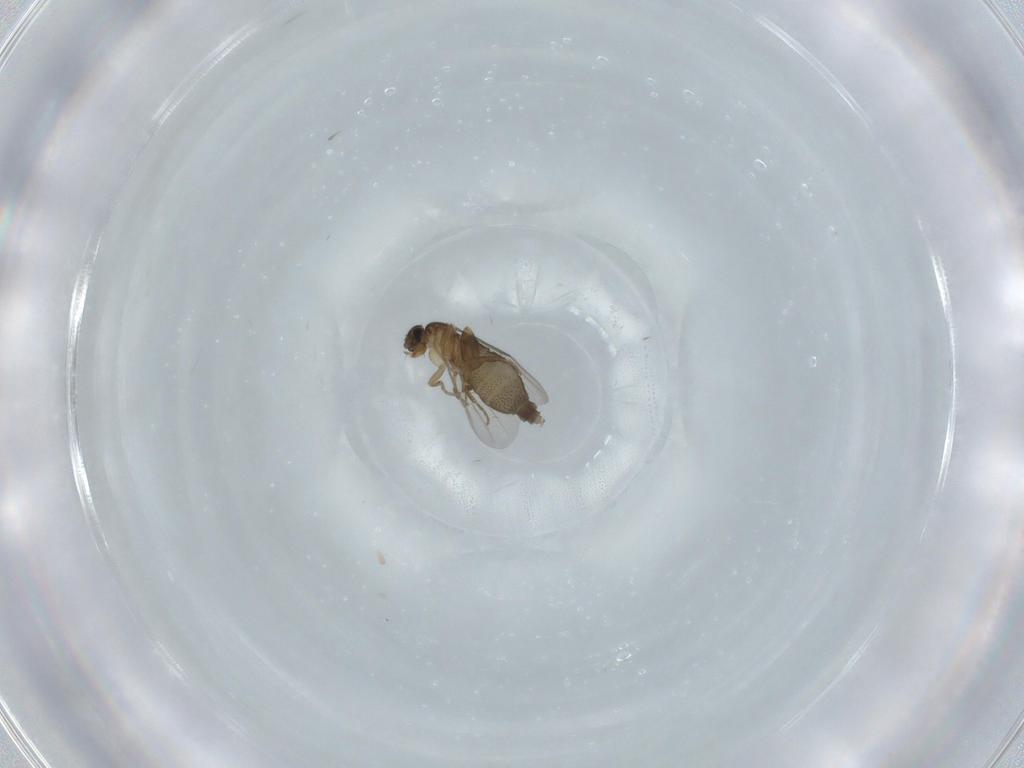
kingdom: Animalia
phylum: Arthropoda
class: Insecta
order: Diptera
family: Phoridae
